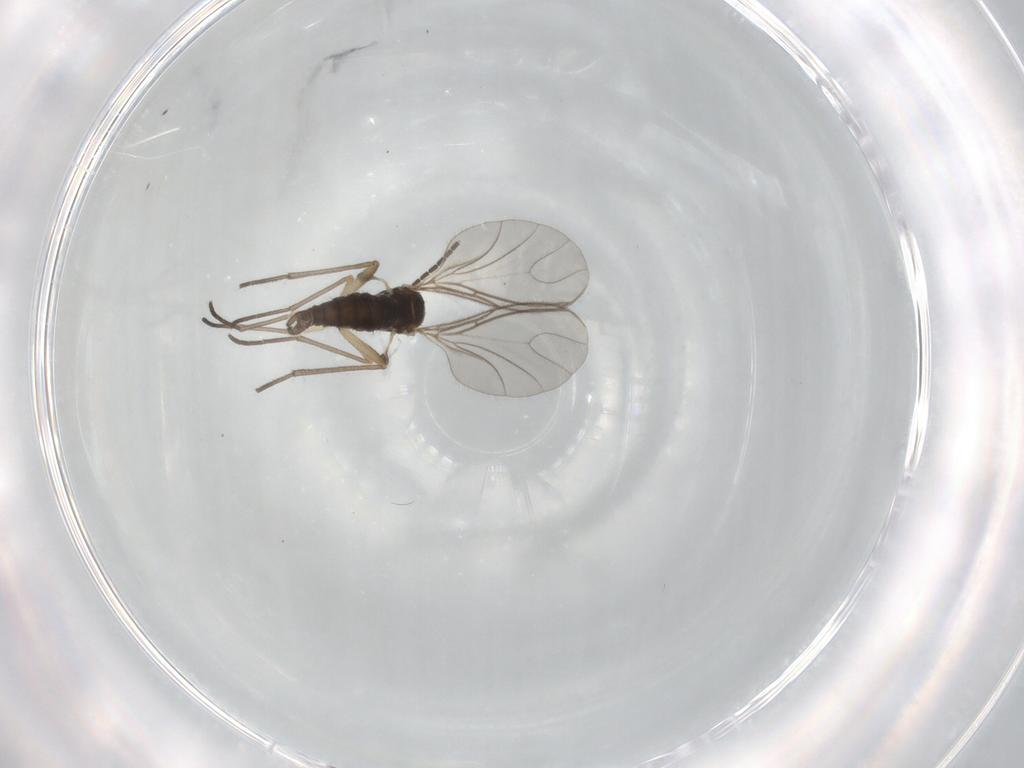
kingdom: Animalia
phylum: Arthropoda
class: Insecta
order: Diptera
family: Sciaridae
